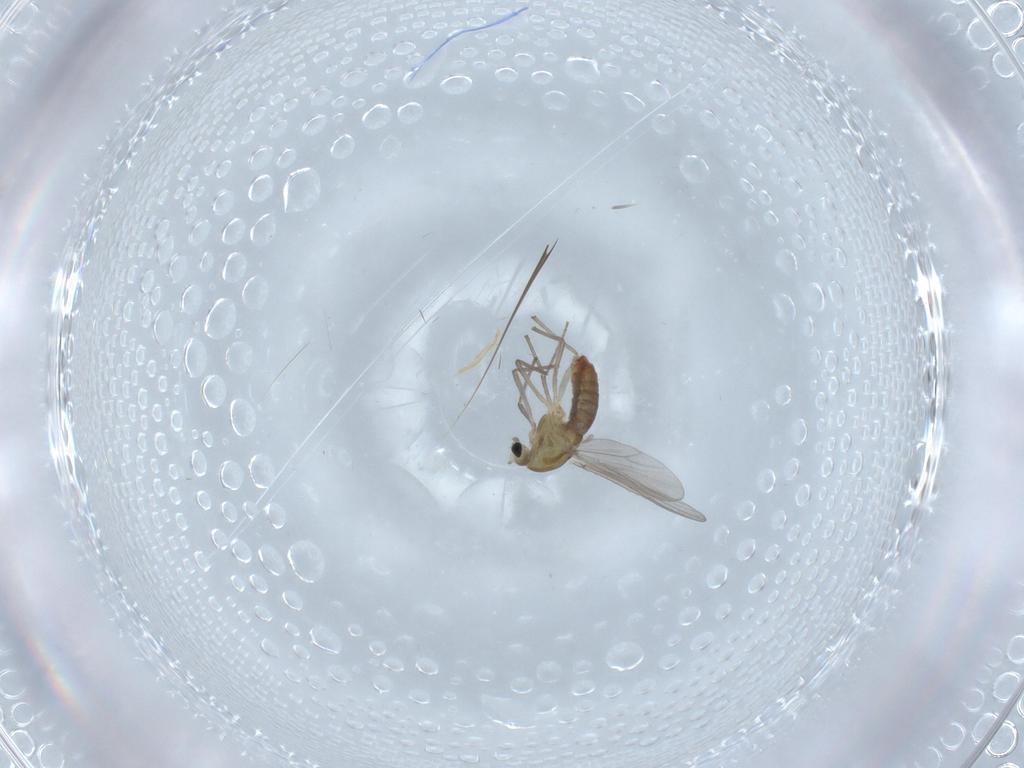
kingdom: Animalia
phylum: Arthropoda
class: Insecta
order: Diptera
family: Chironomidae
